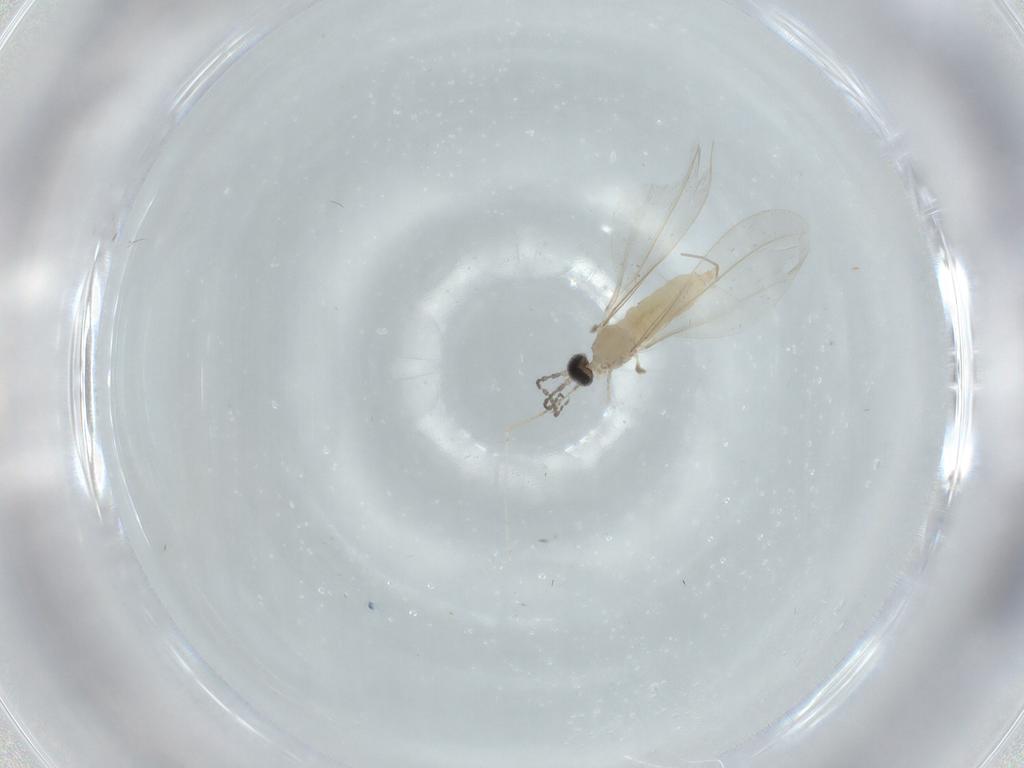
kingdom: Animalia
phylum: Arthropoda
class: Insecta
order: Diptera
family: Cecidomyiidae
